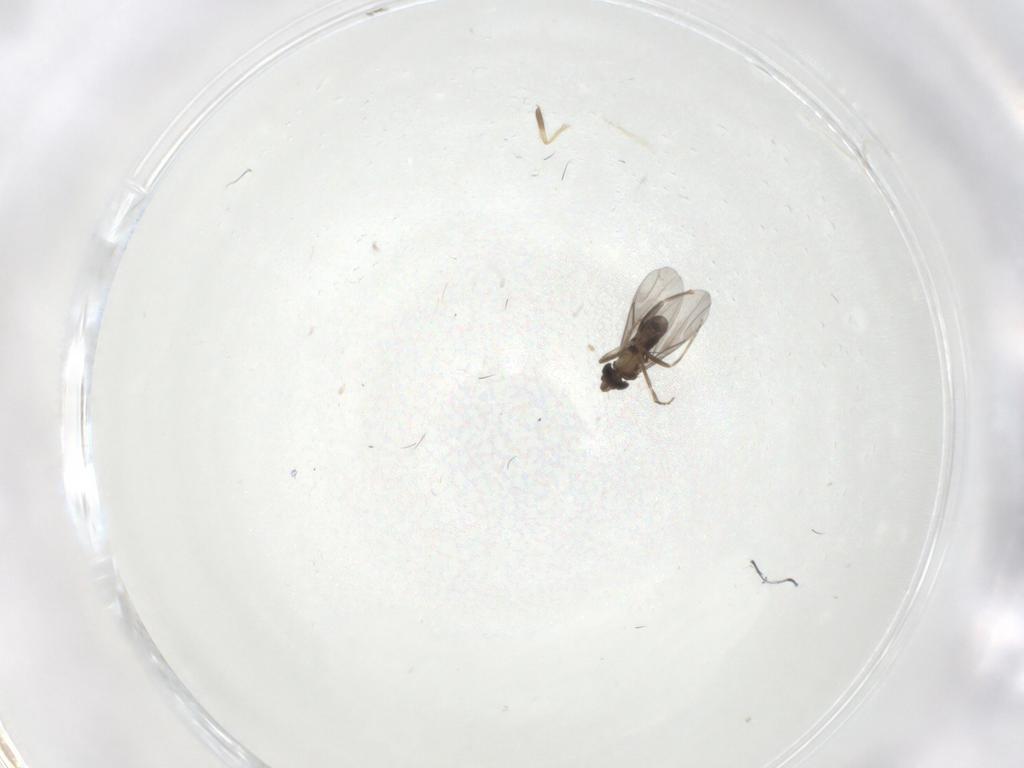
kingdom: Animalia
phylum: Arthropoda
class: Insecta
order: Diptera
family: Chironomidae
